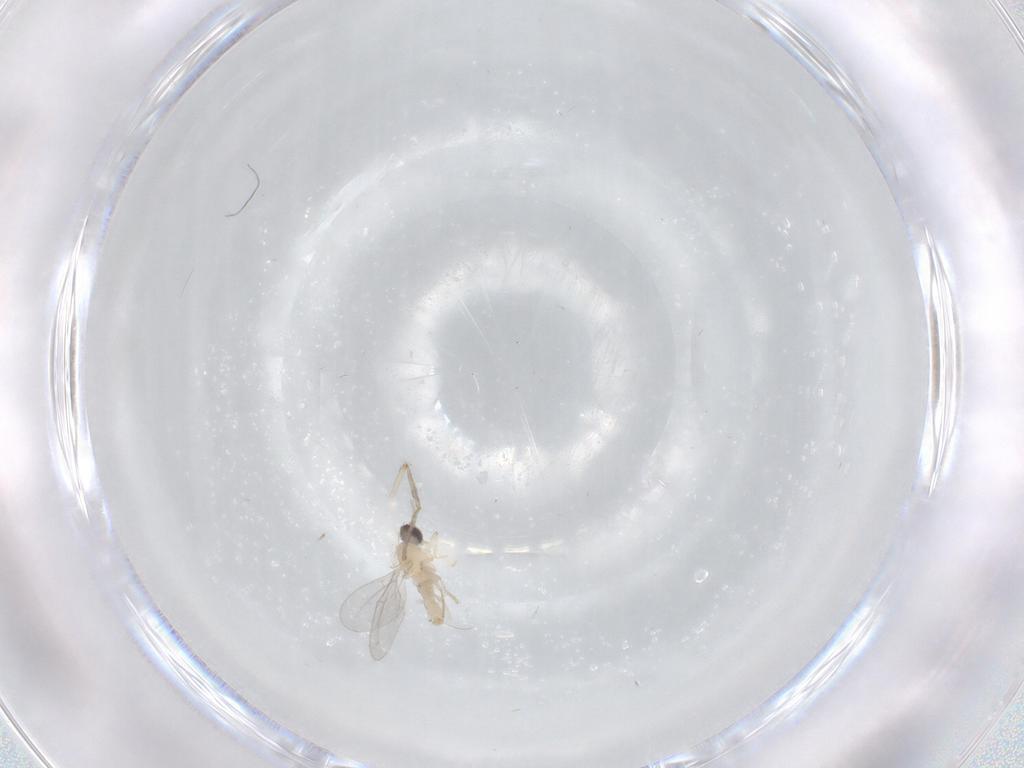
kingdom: Animalia
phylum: Arthropoda
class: Insecta
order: Diptera
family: Cecidomyiidae
